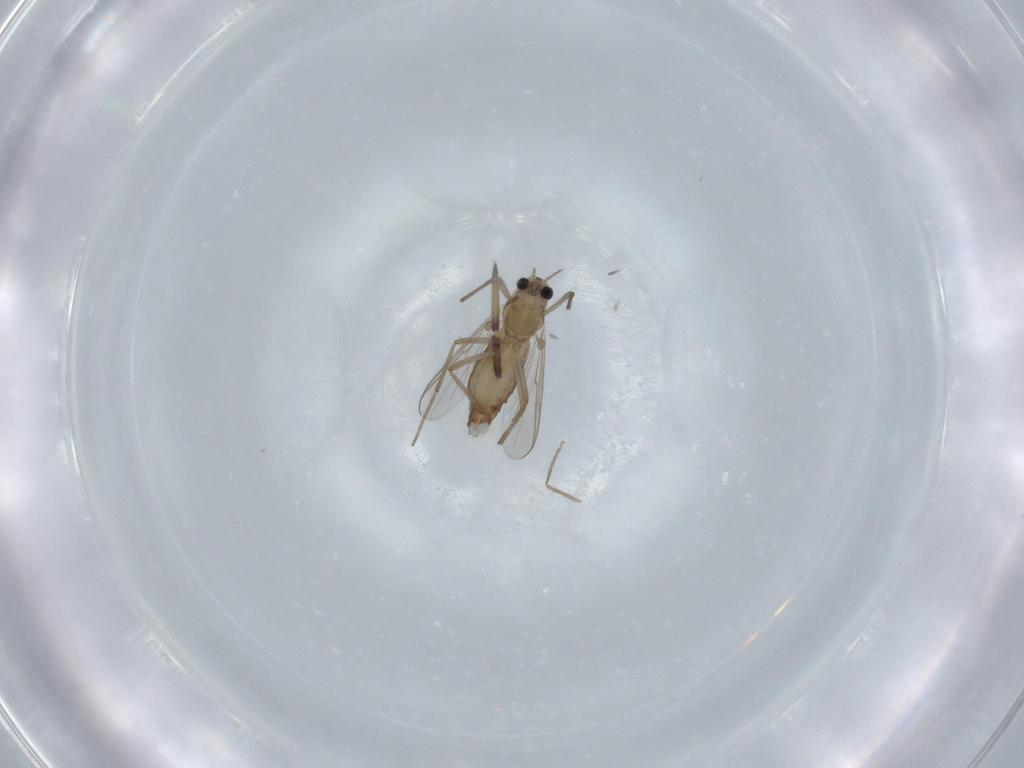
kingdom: Animalia
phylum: Arthropoda
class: Insecta
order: Diptera
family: Chironomidae
